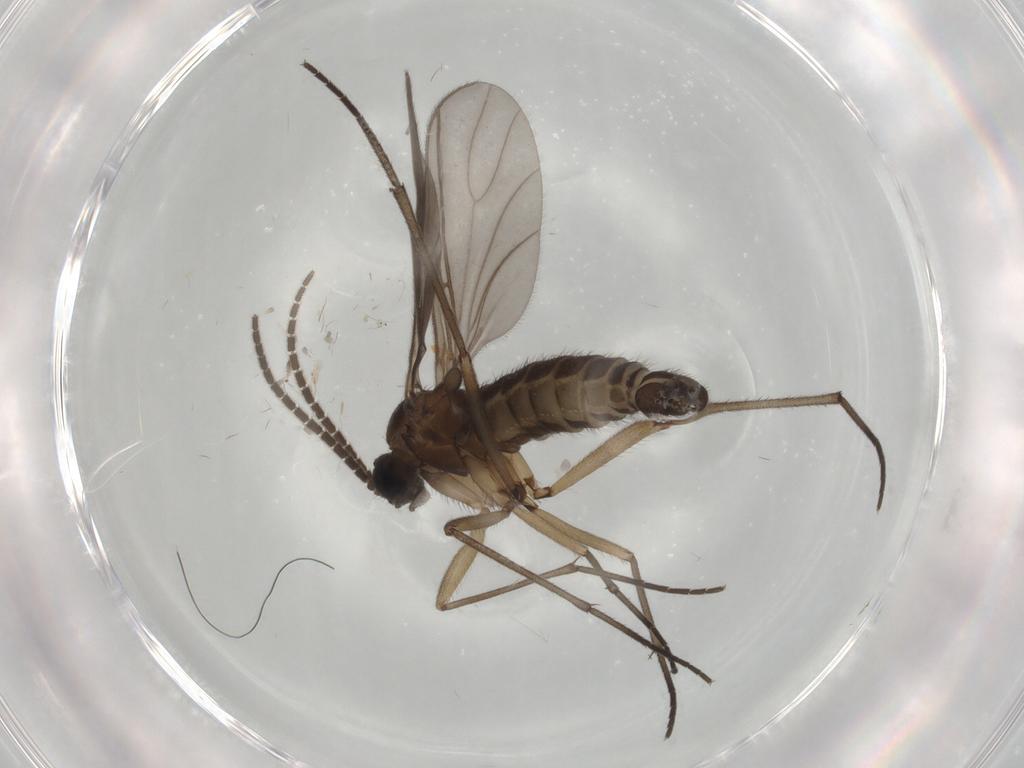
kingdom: Animalia
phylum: Arthropoda
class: Insecta
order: Diptera
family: Sciaridae
